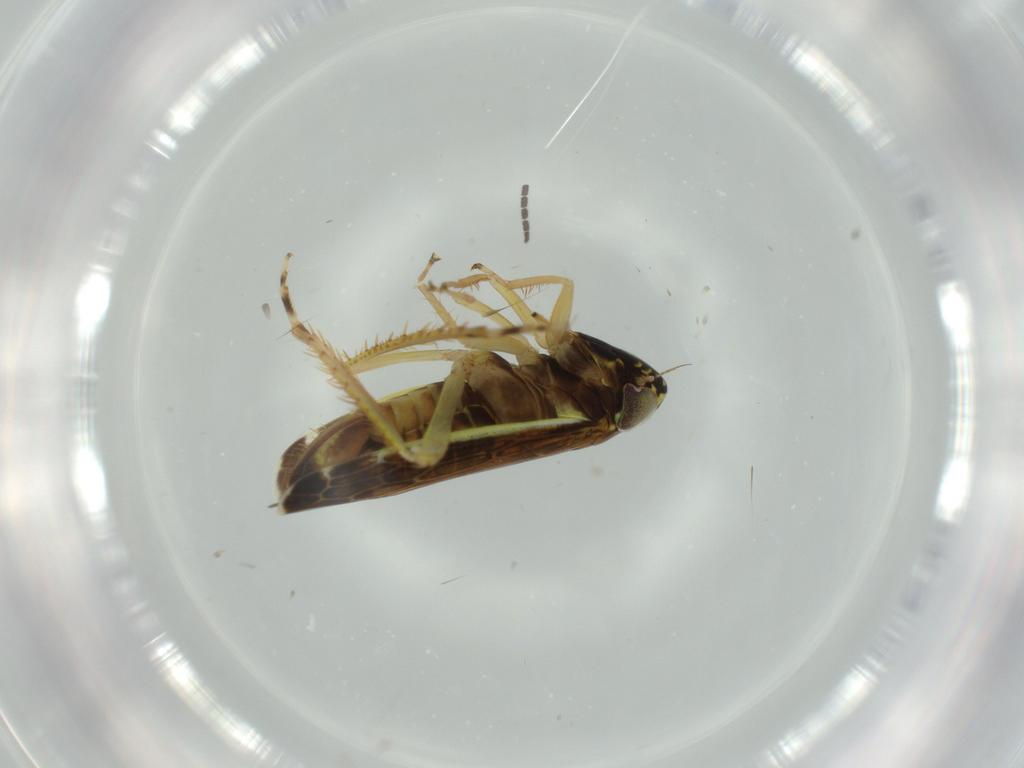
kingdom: Animalia
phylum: Arthropoda
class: Insecta
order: Hemiptera
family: Cicadellidae
